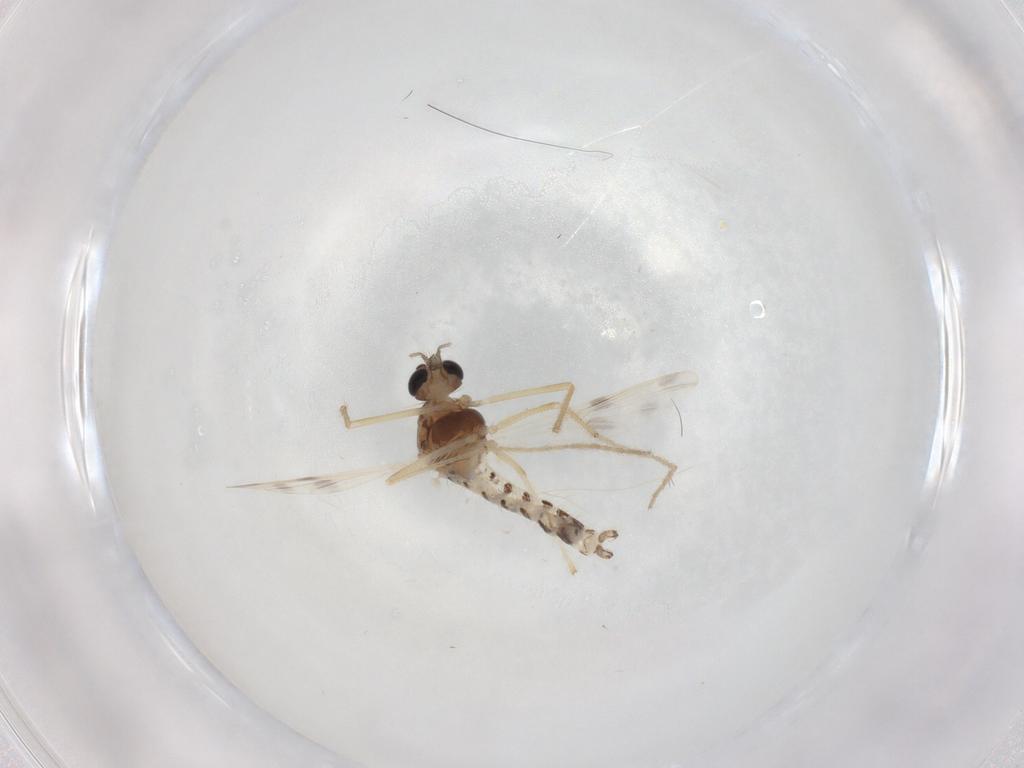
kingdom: Animalia
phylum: Arthropoda
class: Insecta
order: Diptera
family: Chironomidae
